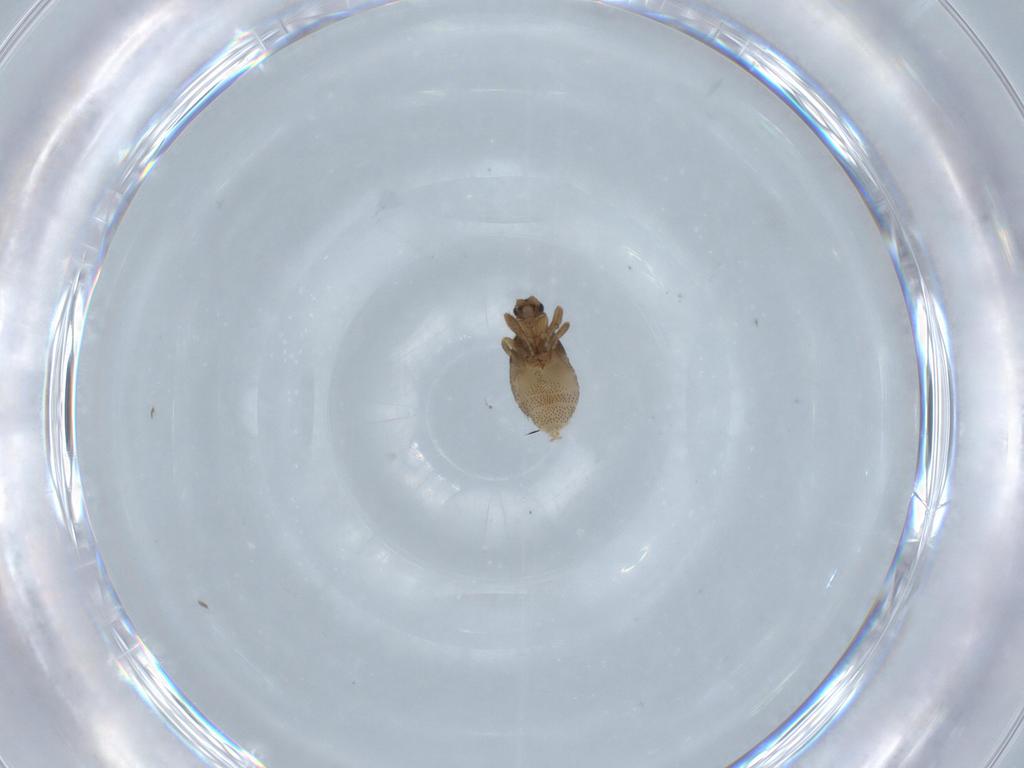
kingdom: Animalia
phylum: Arthropoda
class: Insecta
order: Diptera
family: Phoridae
